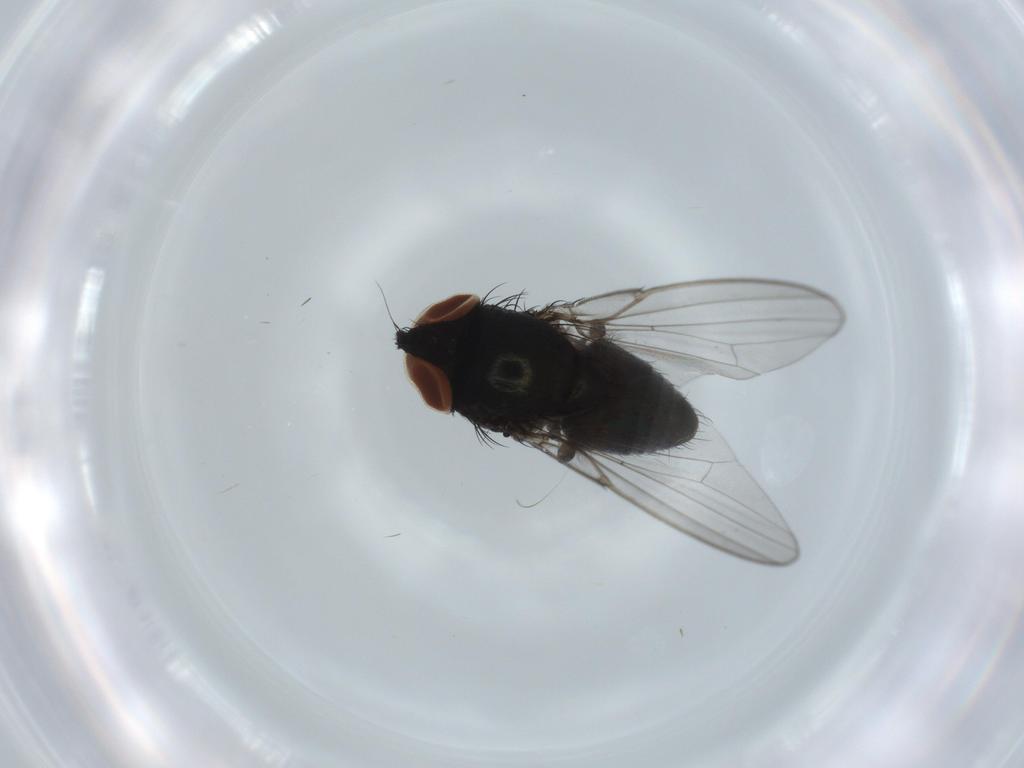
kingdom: Animalia
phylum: Arthropoda
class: Insecta
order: Diptera
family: Milichiidae
